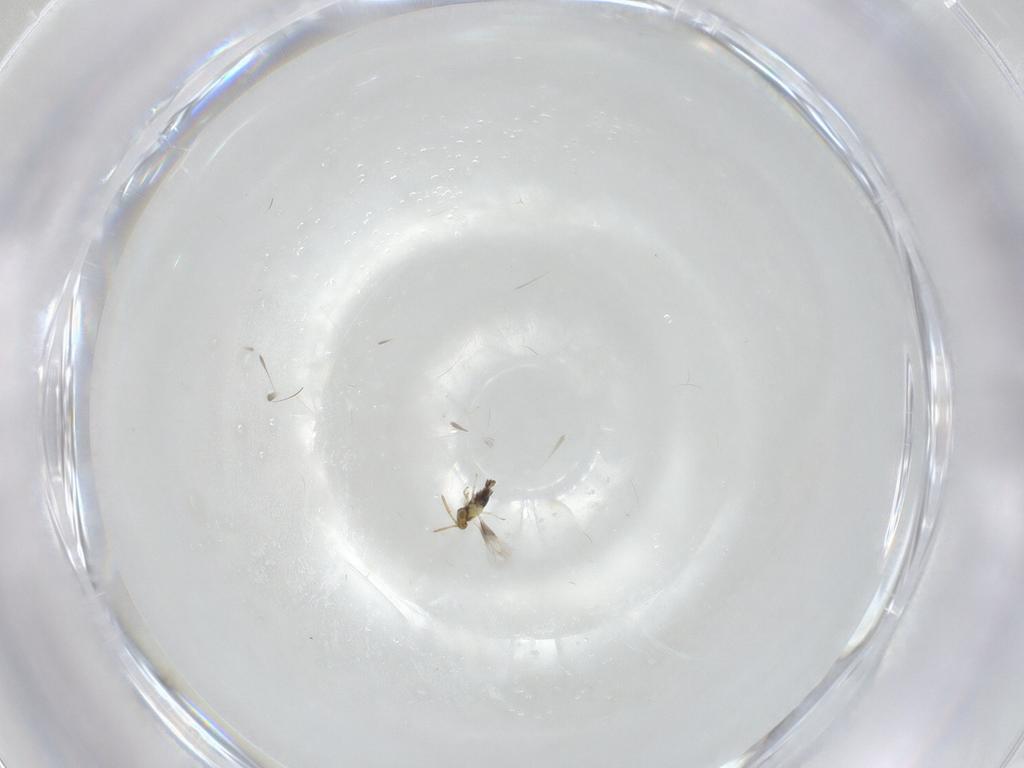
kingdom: Animalia
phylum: Arthropoda
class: Insecta
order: Hymenoptera
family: Aphelinidae
